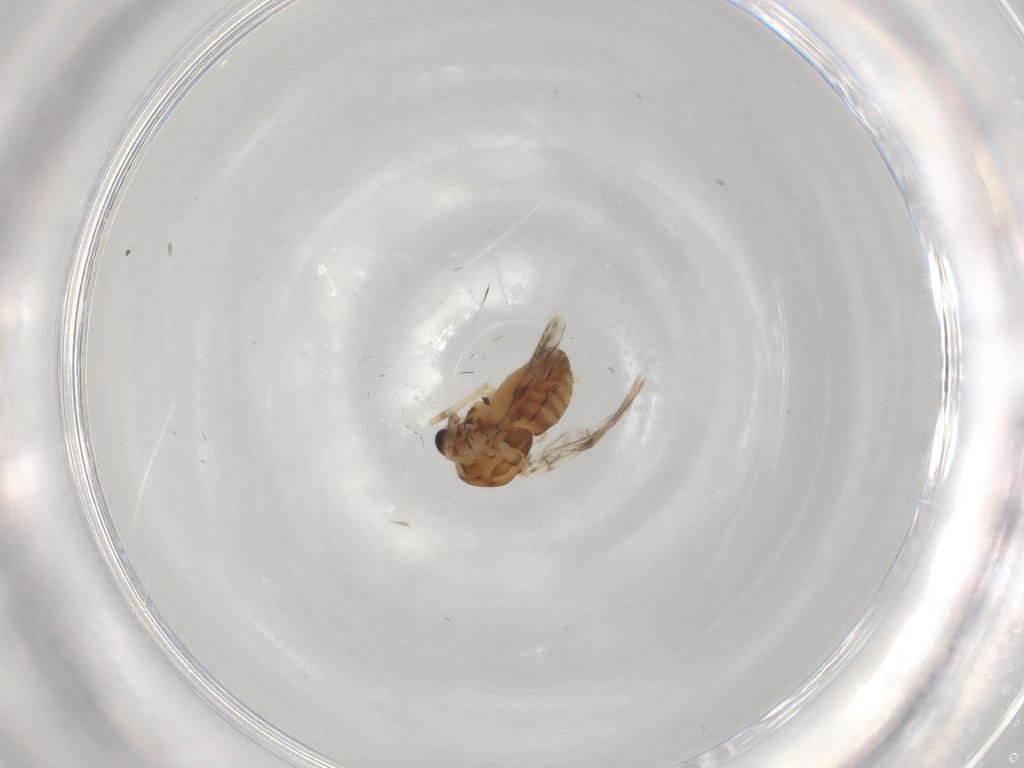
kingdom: Animalia
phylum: Arthropoda
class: Insecta
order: Diptera
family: Chironomidae
